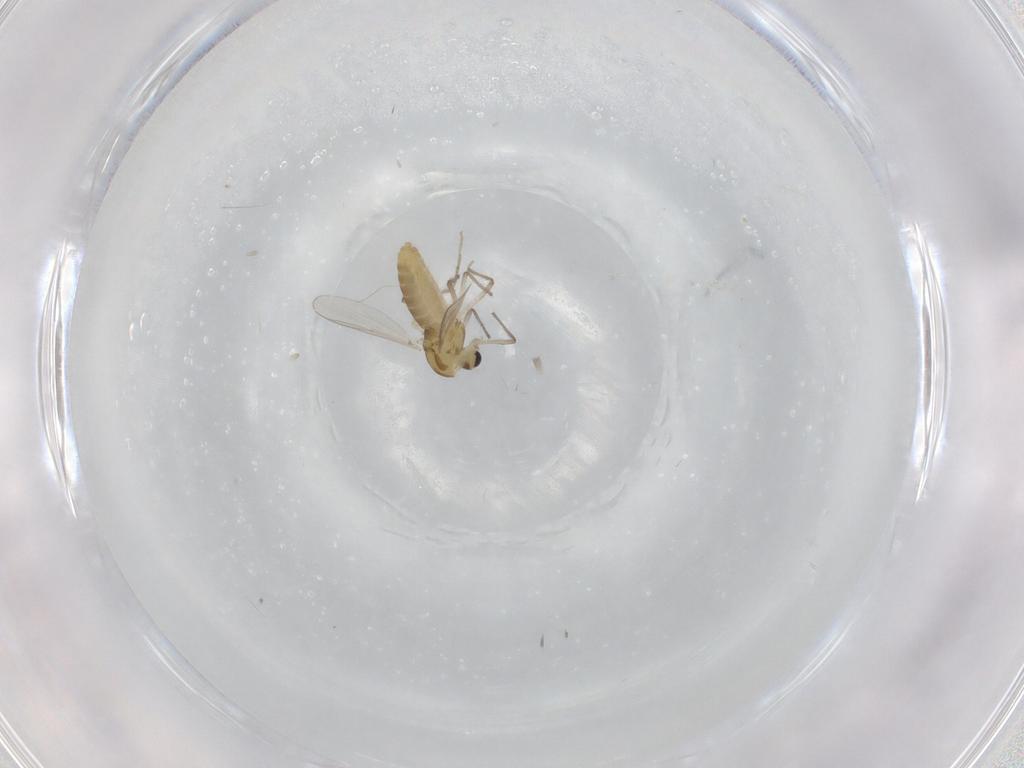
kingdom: Animalia
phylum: Arthropoda
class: Insecta
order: Diptera
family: Chironomidae
